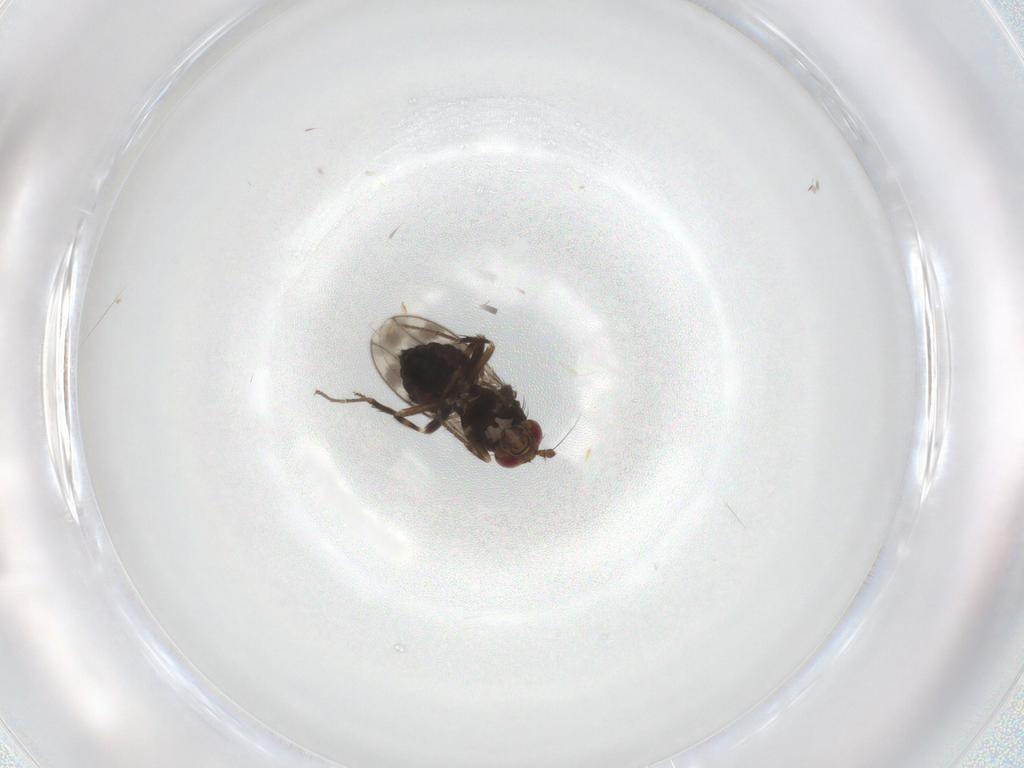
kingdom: Animalia
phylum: Arthropoda
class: Insecta
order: Diptera
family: Sphaeroceridae
